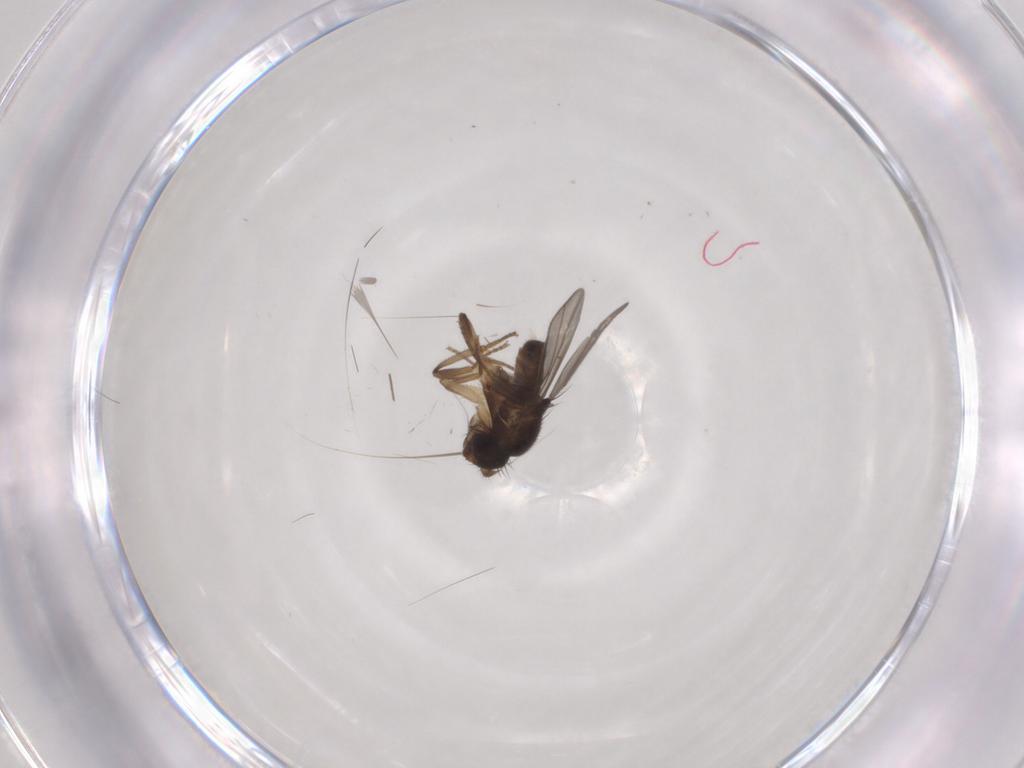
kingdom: Animalia
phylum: Arthropoda
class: Insecta
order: Diptera
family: Sphaeroceridae
